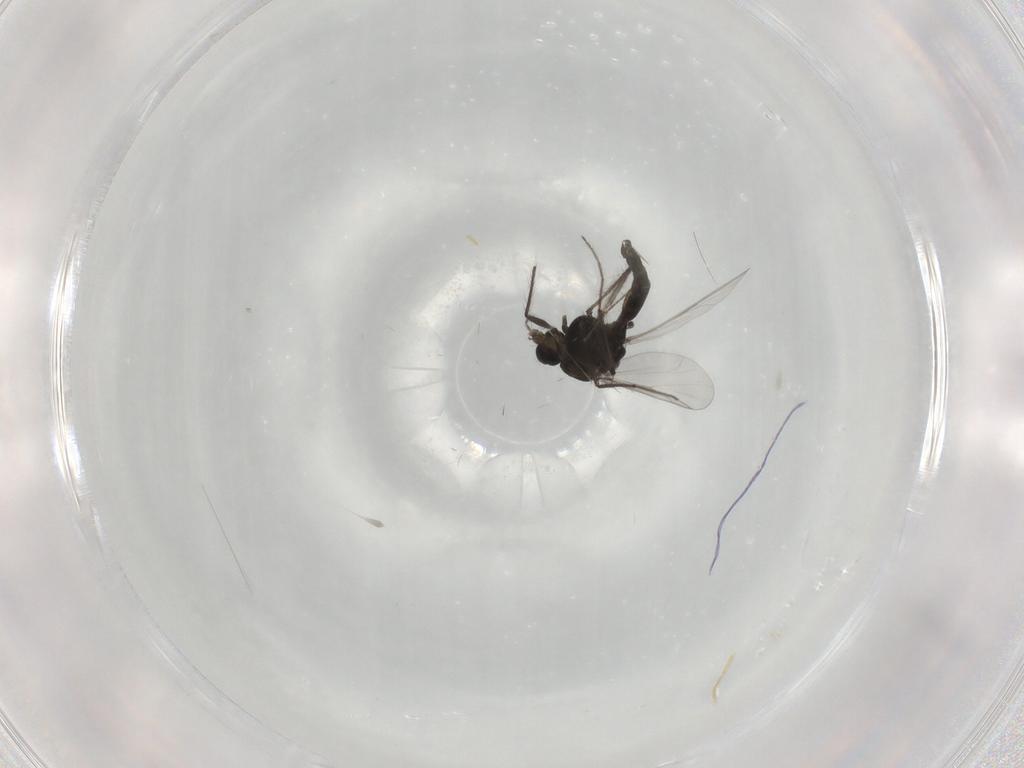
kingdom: Animalia
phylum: Arthropoda
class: Insecta
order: Diptera
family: Chironomidae
